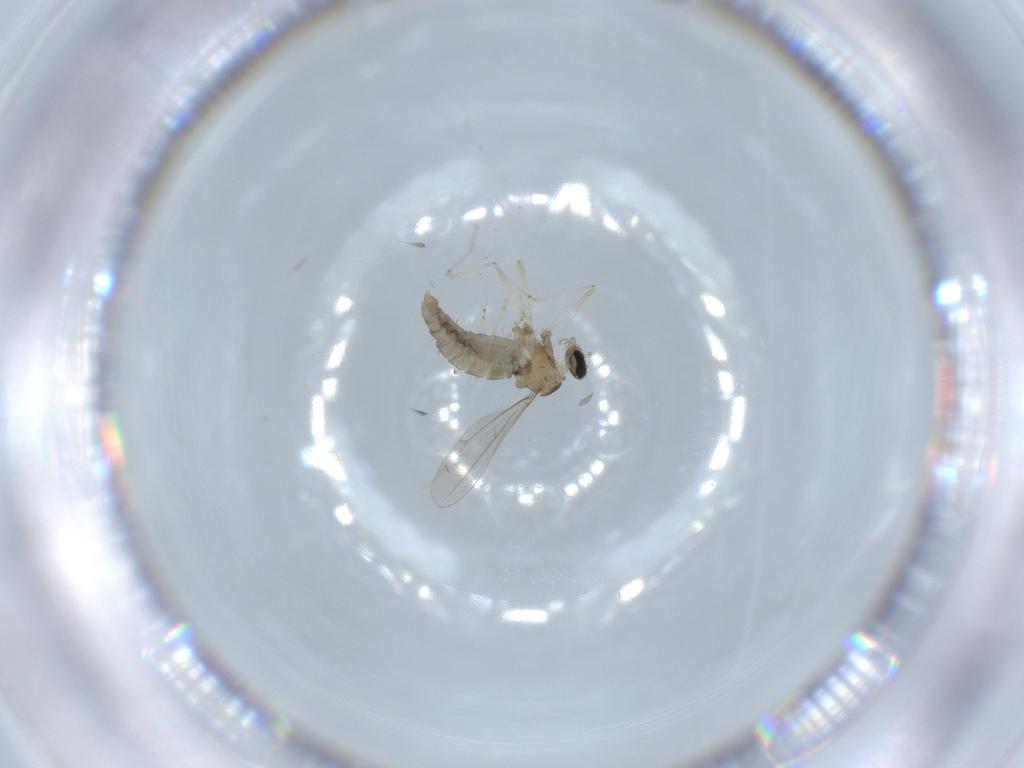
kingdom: Animalia
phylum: Arthropoda
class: Insecta
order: Diptera
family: Cecidomyiidae
